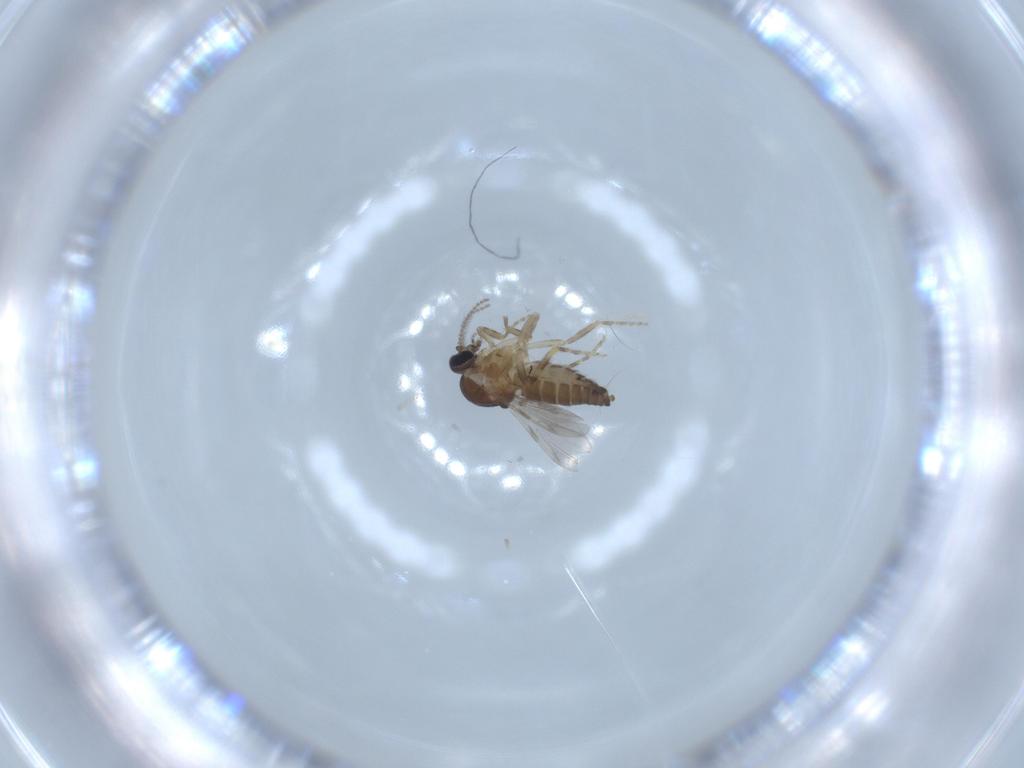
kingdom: Animalia
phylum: Arthropoda
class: Insecta
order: Diptera
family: Ceratopogonidae
